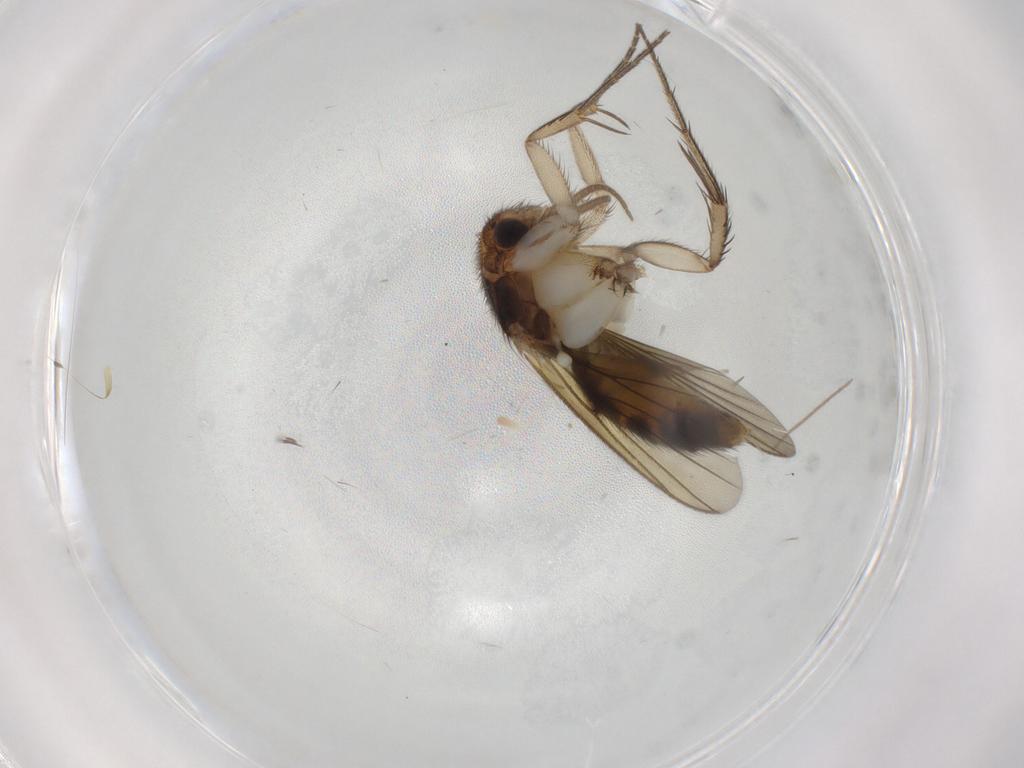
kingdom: Animalia
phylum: Arthropoda
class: Insecta
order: Diptera
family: Mycetophilidae
